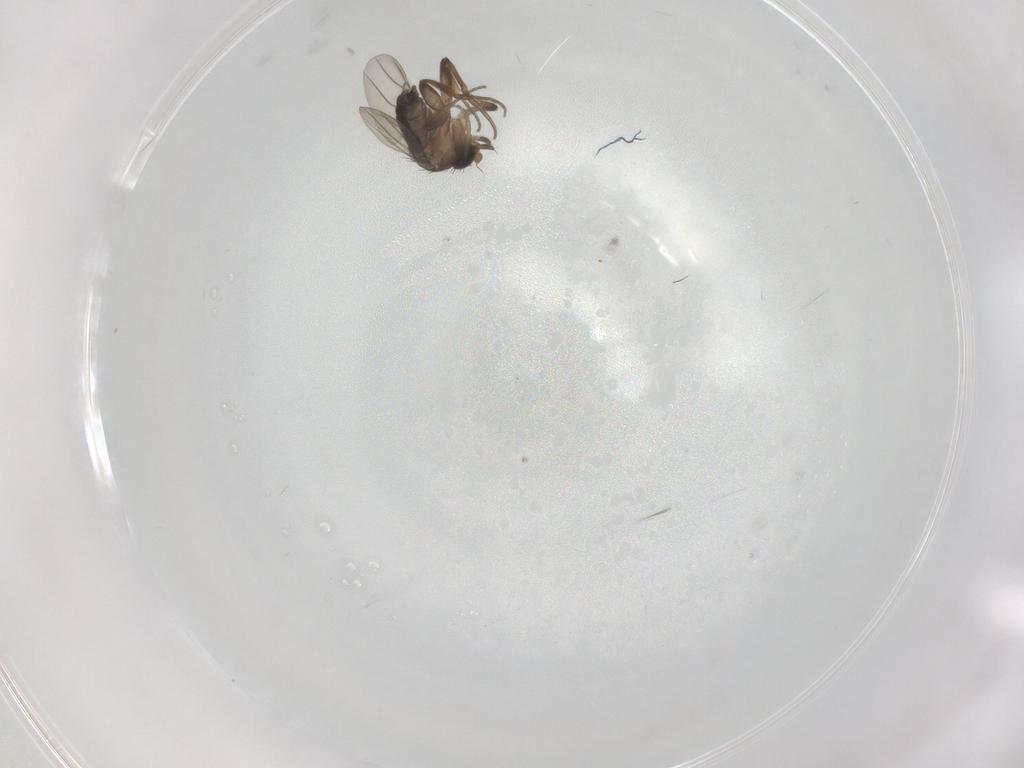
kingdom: Animalia
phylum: Arthropoda
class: Insecta
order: Diptera
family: Phoridae
